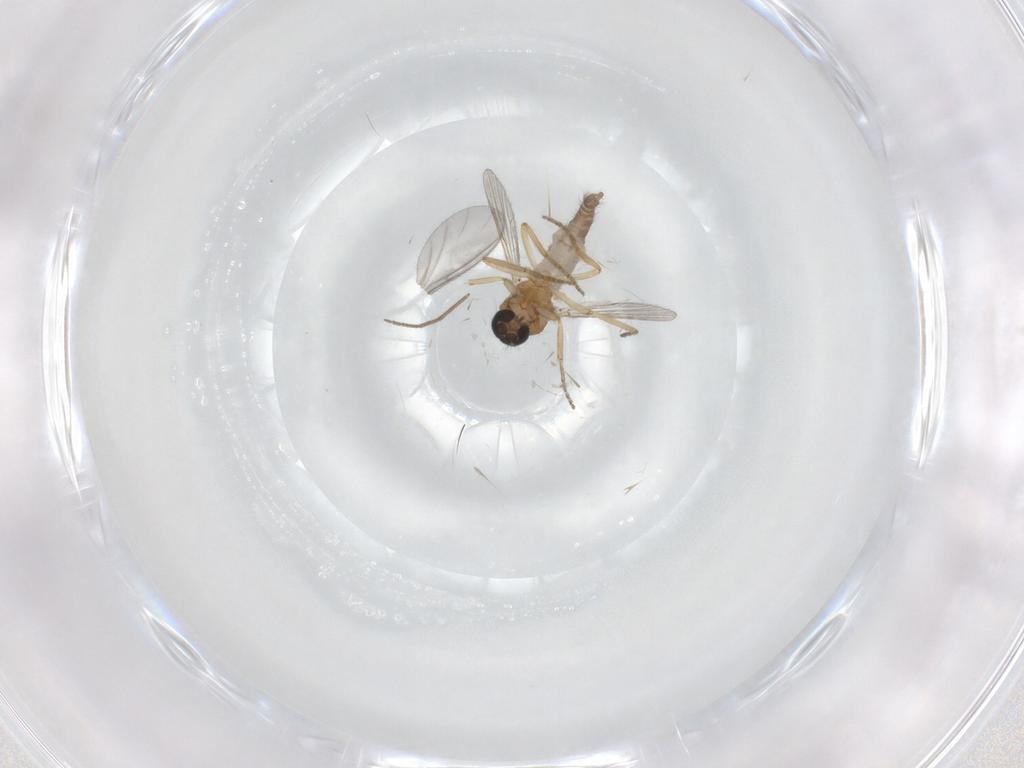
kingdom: Animalia
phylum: Arthropoda
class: Insecta
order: Diptera
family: Ceratopogonidae
